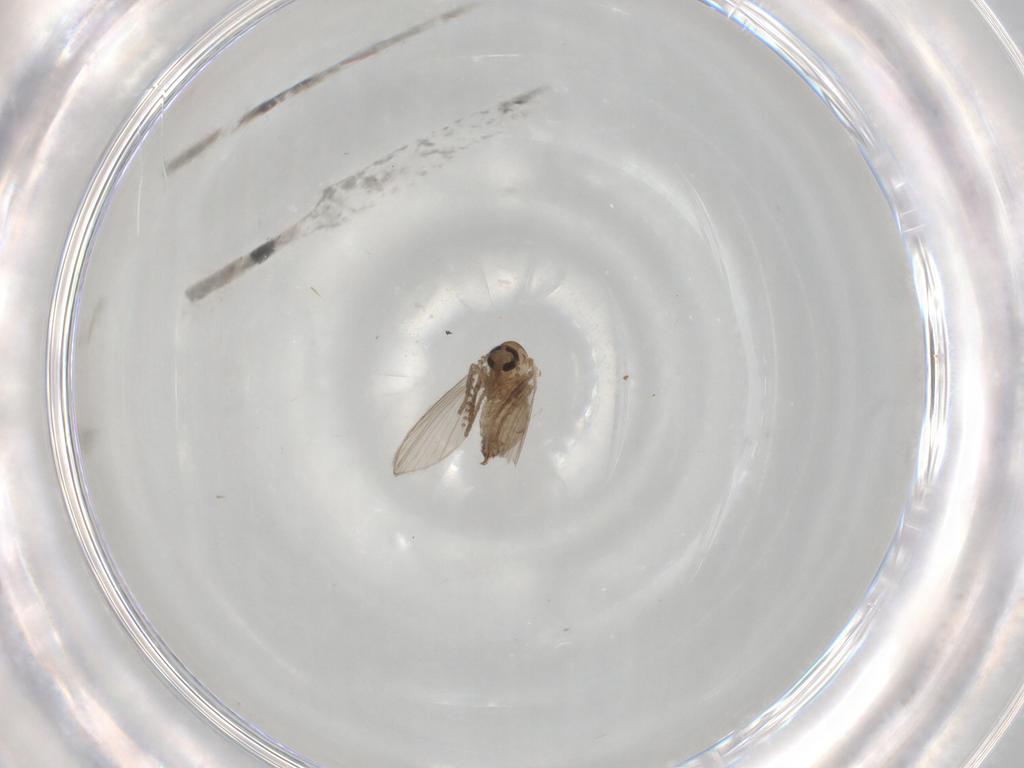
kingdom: Animalia
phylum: Arthropoda
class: Insecta
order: Diptera
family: Psychodidae
